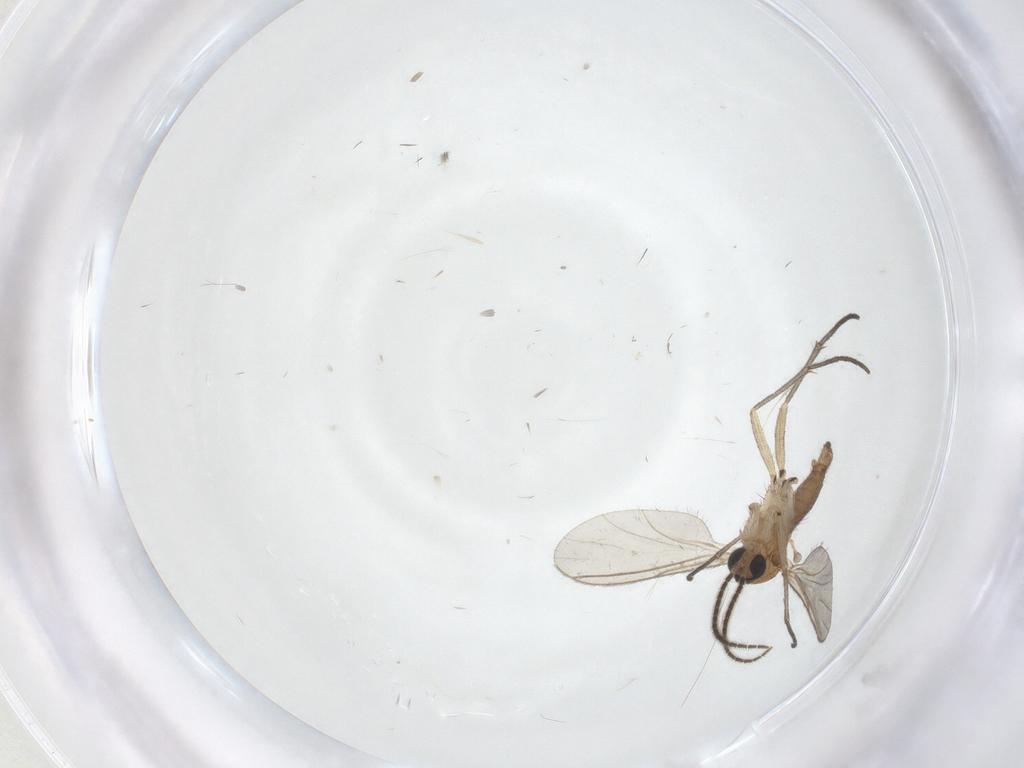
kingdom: Animalia
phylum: Arthropoda
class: Insecta
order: Diptera
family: Sciaridae
